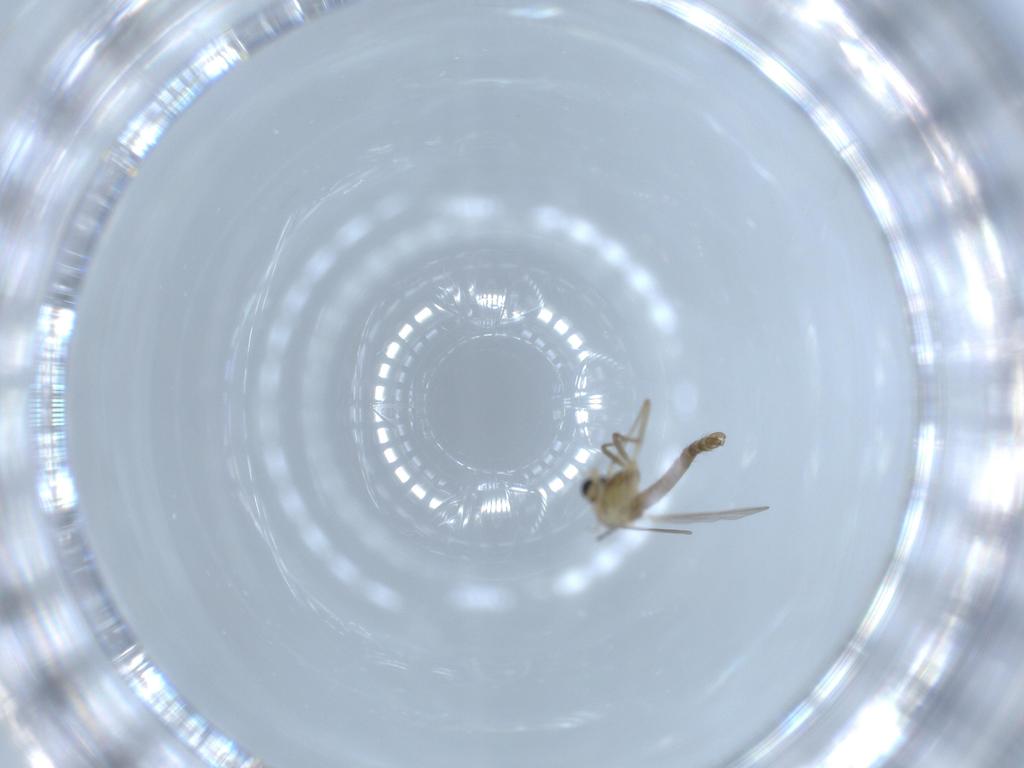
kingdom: Animalia
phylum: Arthropoda
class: Insecta
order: Diptera
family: Chironomidae
